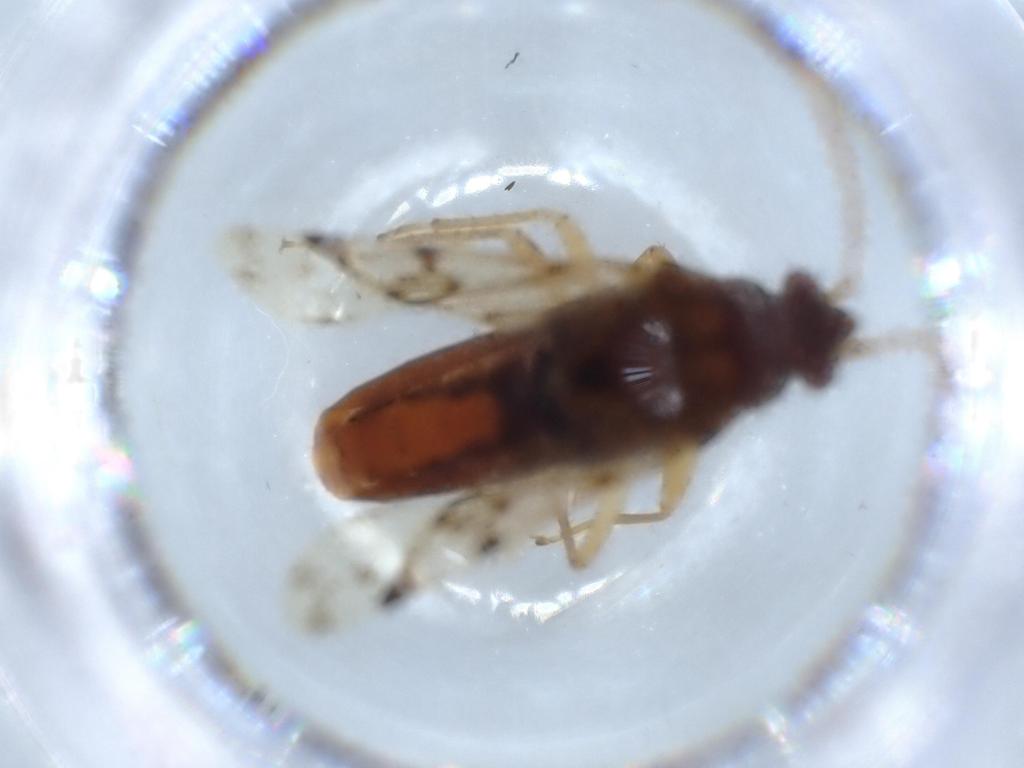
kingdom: Animalia
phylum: Arthropoda
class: Insecta
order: Hemiptera
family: Rhyparochromidae
